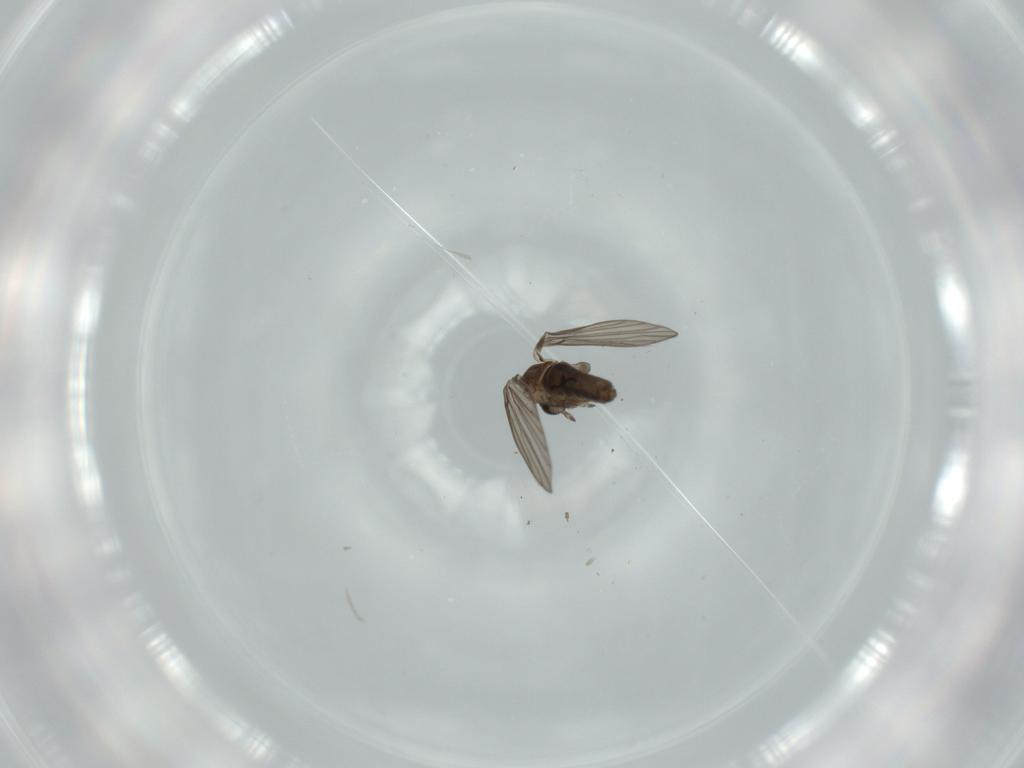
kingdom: Animalia
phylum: Arthropoda
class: Insecta
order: Diptera
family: Psychodidae
